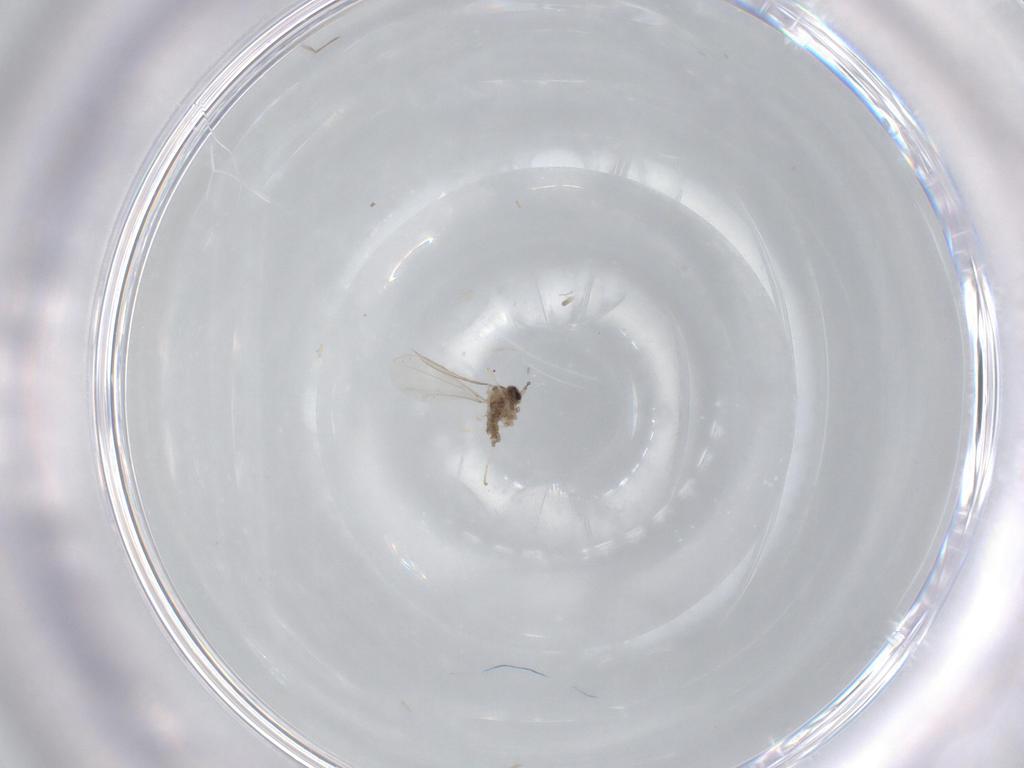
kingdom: Animalia
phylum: Arthropoda
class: Insecta
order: Diptera
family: Cecidomyiidae
